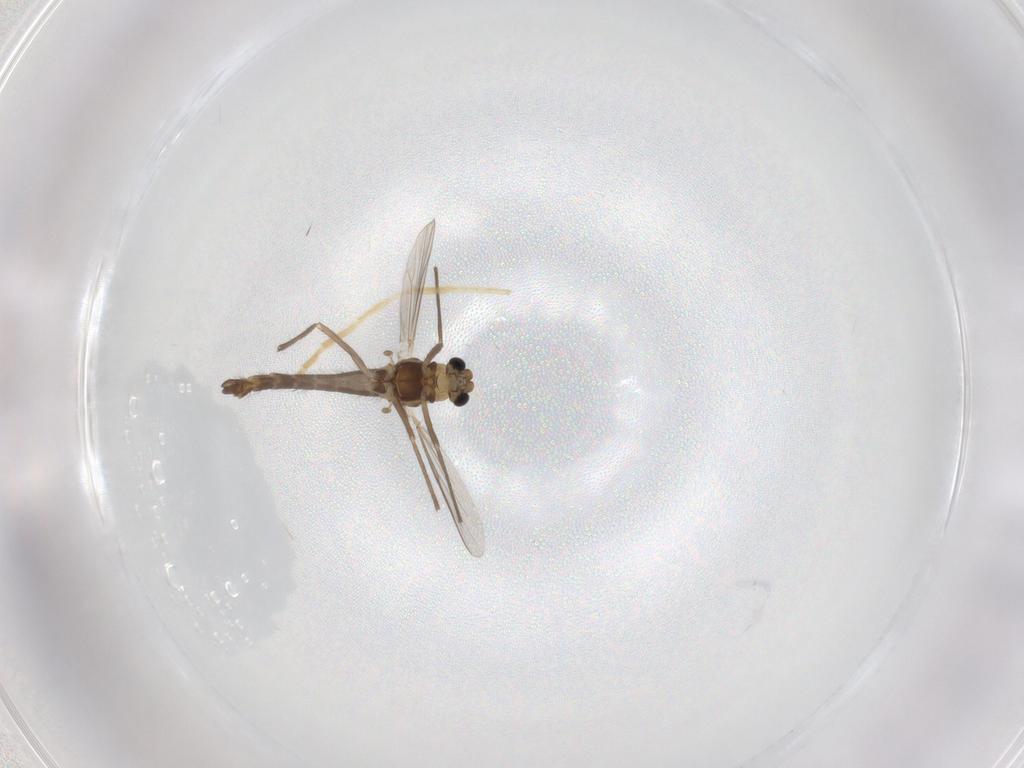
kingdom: Animalia
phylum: Arthropoda
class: Insecta
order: Diptera
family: Chironomidae
